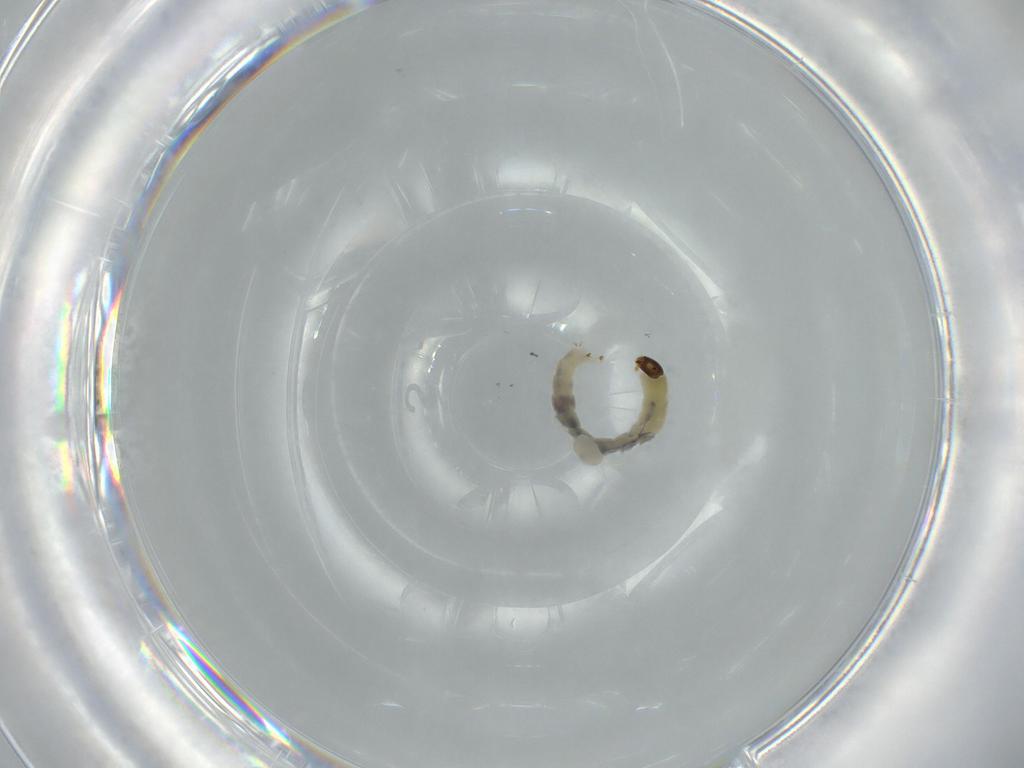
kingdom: Animalia
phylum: Arthropoda
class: Insecta
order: Diptera
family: Chironomidae
